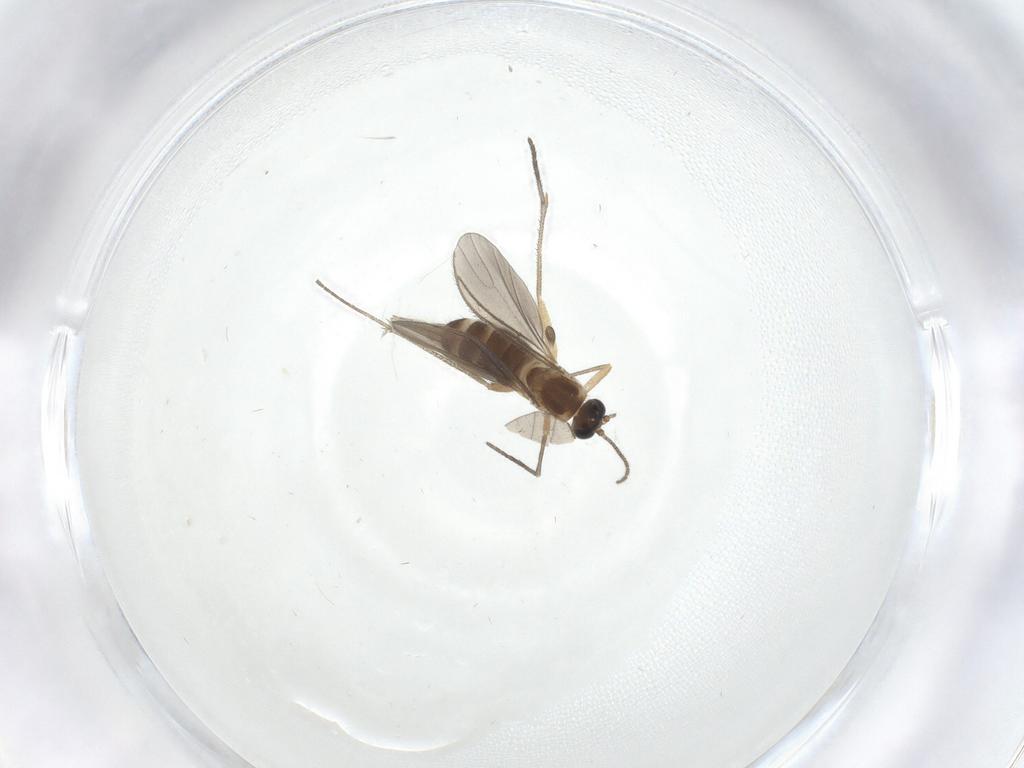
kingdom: Animalia
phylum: Arthropoda
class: Insecta
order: Diptera
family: Sciaridae
